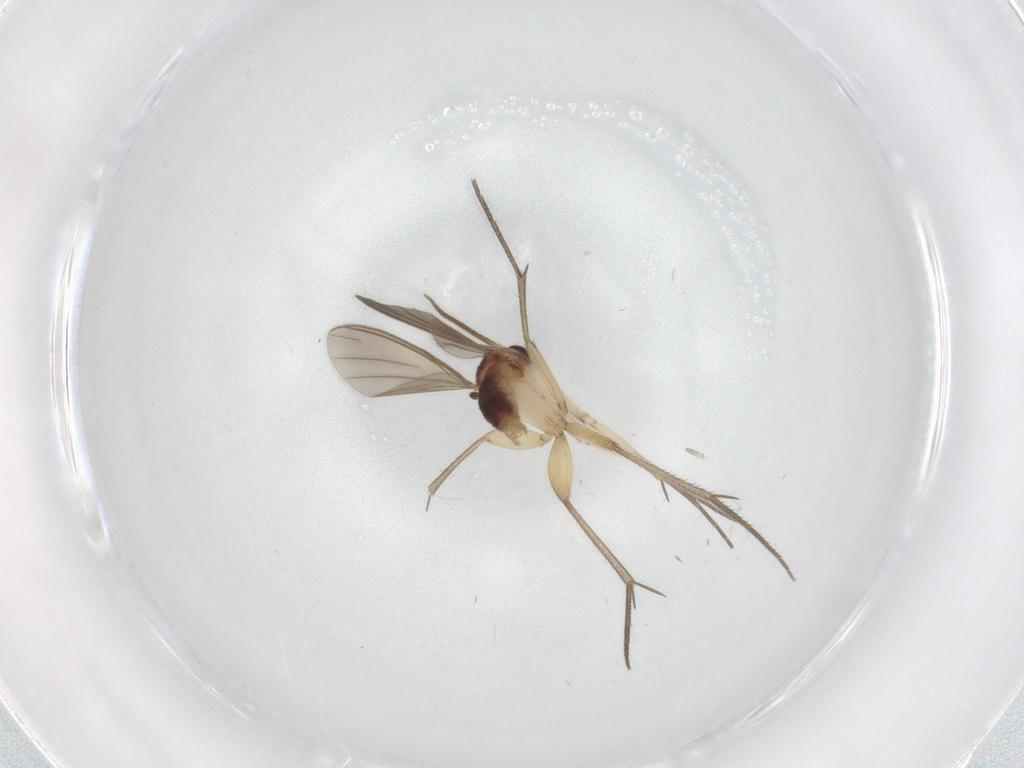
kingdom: Animalia
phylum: Arthropoda
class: Insecta
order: Diptera
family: Mycetophilidae
